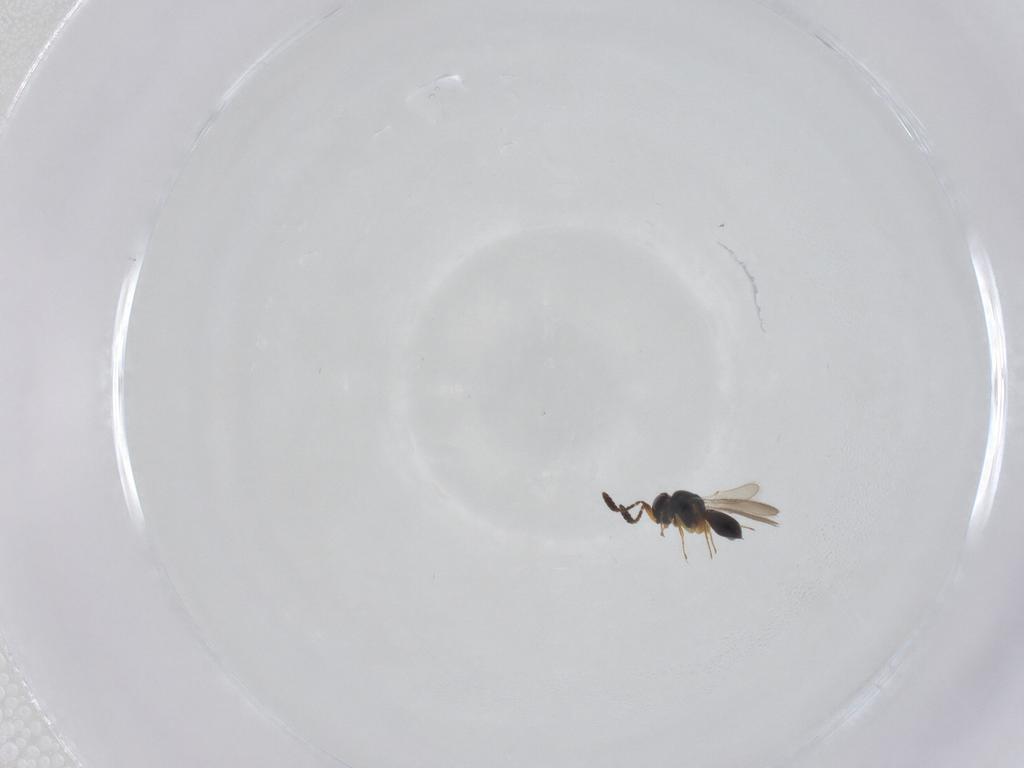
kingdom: Animalia
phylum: Arthropoda
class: Insecta
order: Hymenoptera
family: Scelionidae
